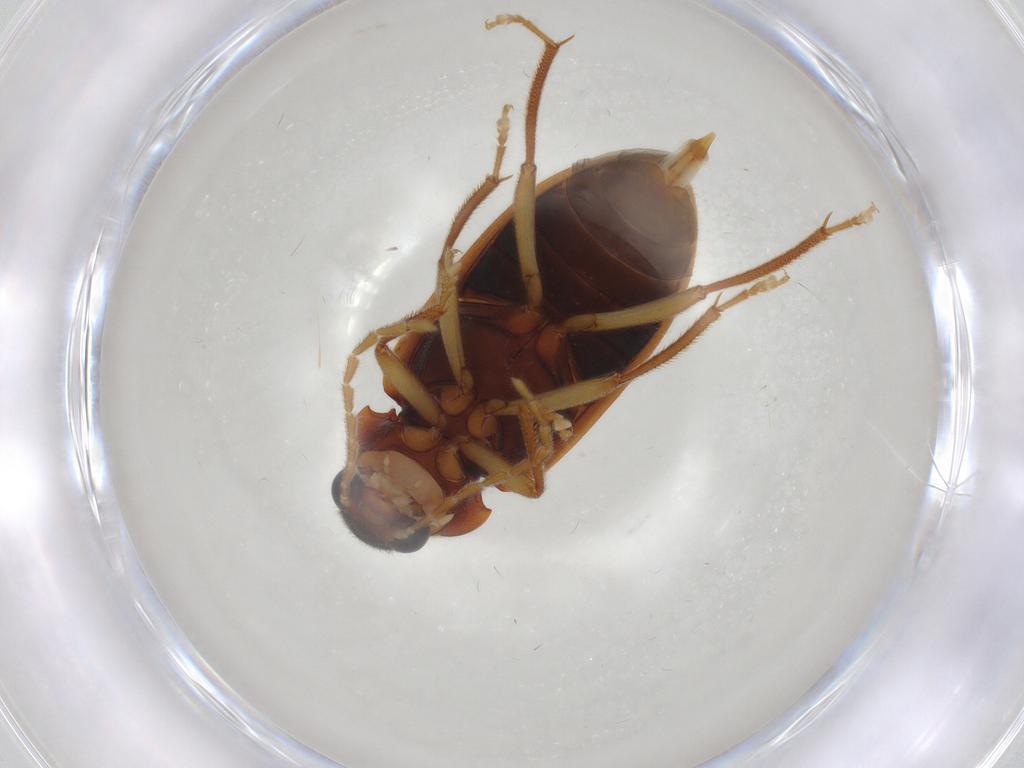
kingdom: Animalia
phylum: Arthropoda
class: Insecta
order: Coleoptera
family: Ptilodactylidae
